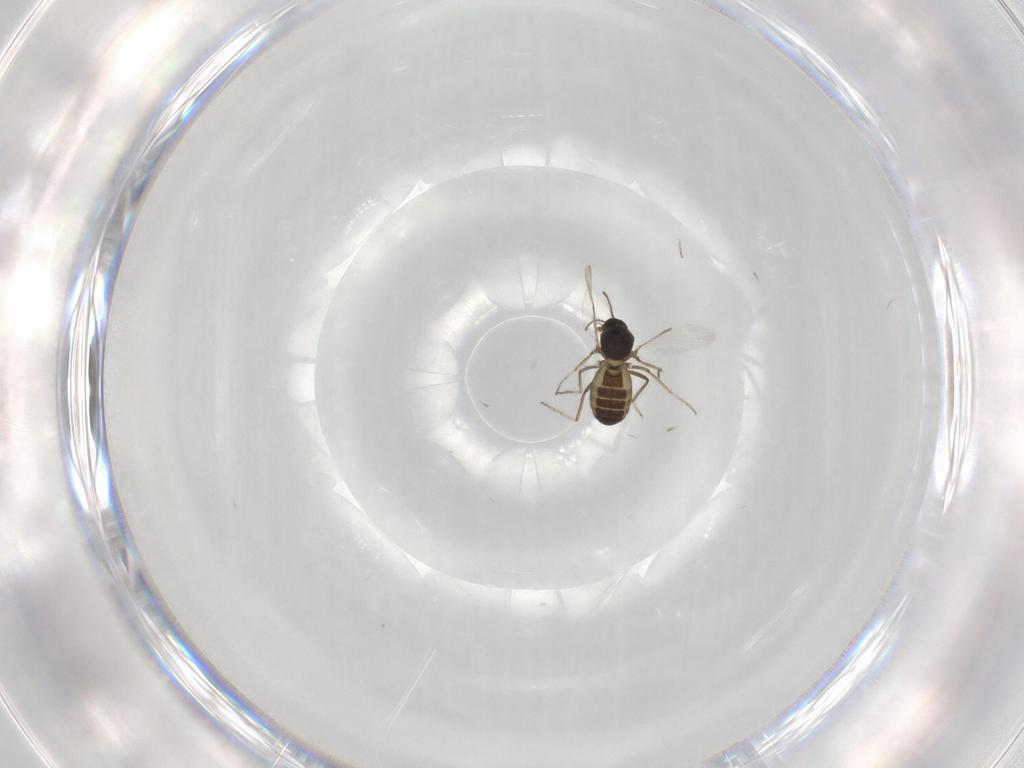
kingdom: Animalia
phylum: Arthropoda
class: Insecta
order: Diptera
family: Ceratopogonidae
